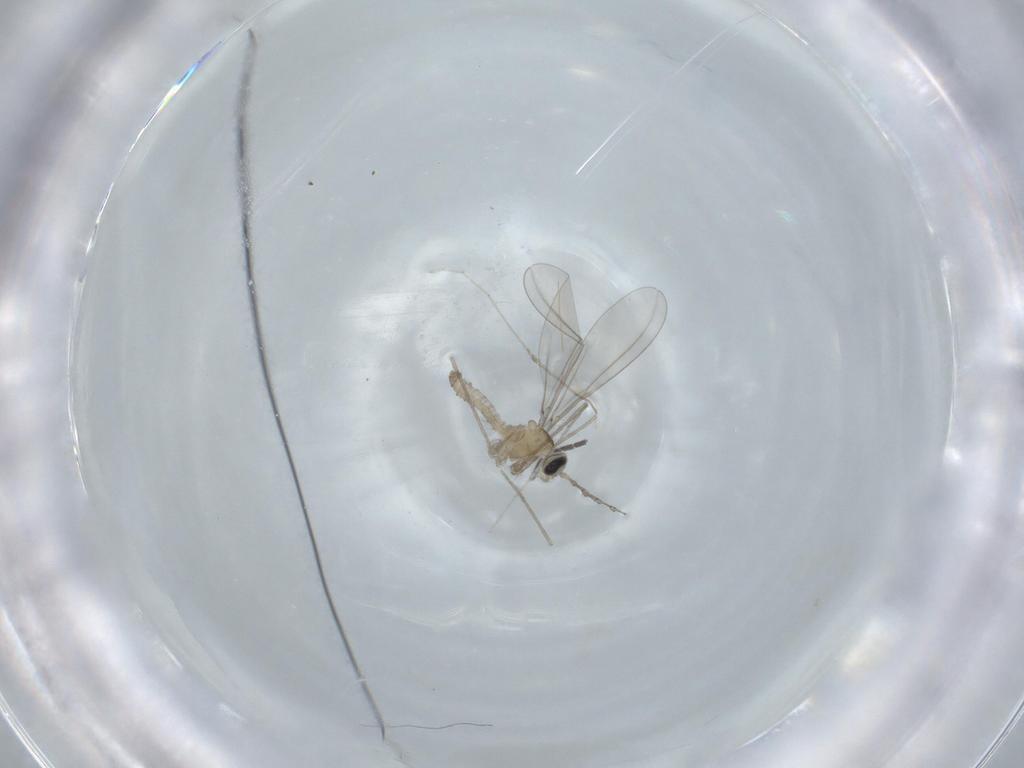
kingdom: Animalia
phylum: Arthropoda
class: Insecta
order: Diptera
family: Cecidomyiidae
